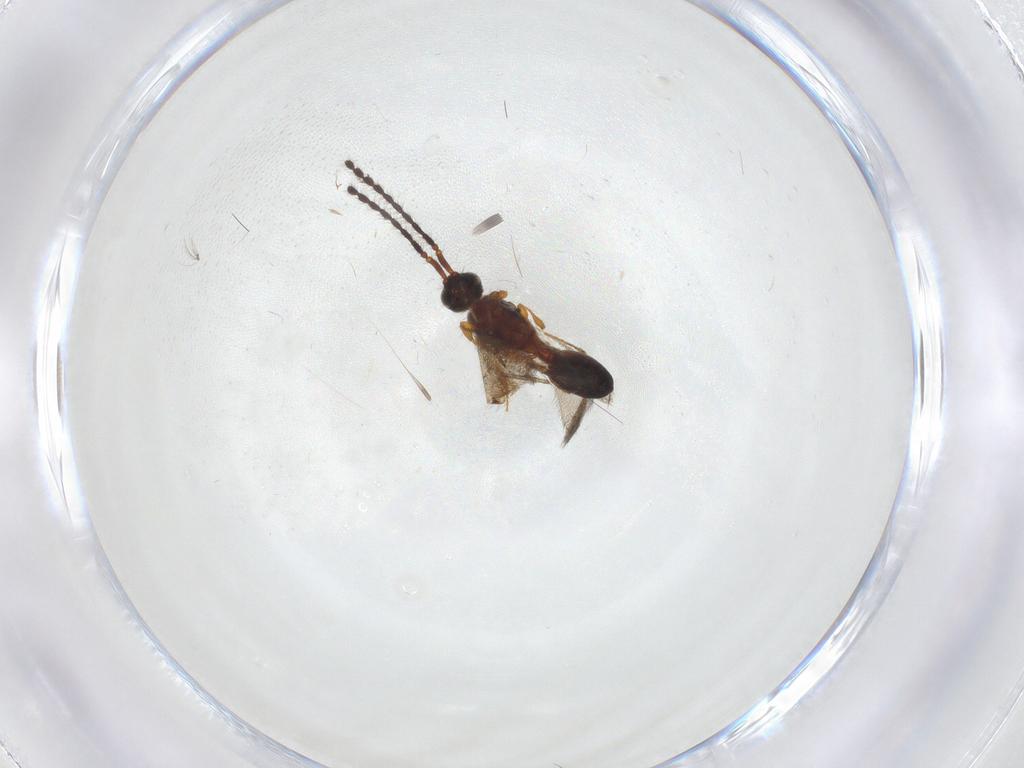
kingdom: Animalia
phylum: Arthropoda
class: Insecta
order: Hymenoptera
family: Diapriidae
